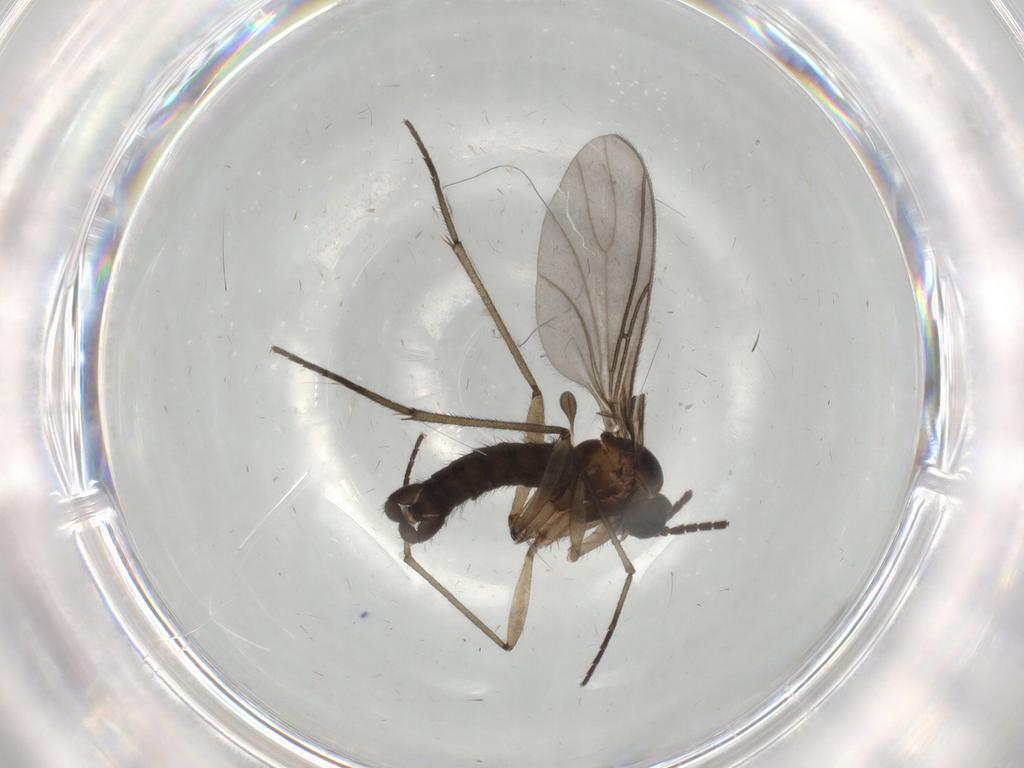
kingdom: Animalia
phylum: Arthropoda
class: Insecta
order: Diptera
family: Sciaridae
